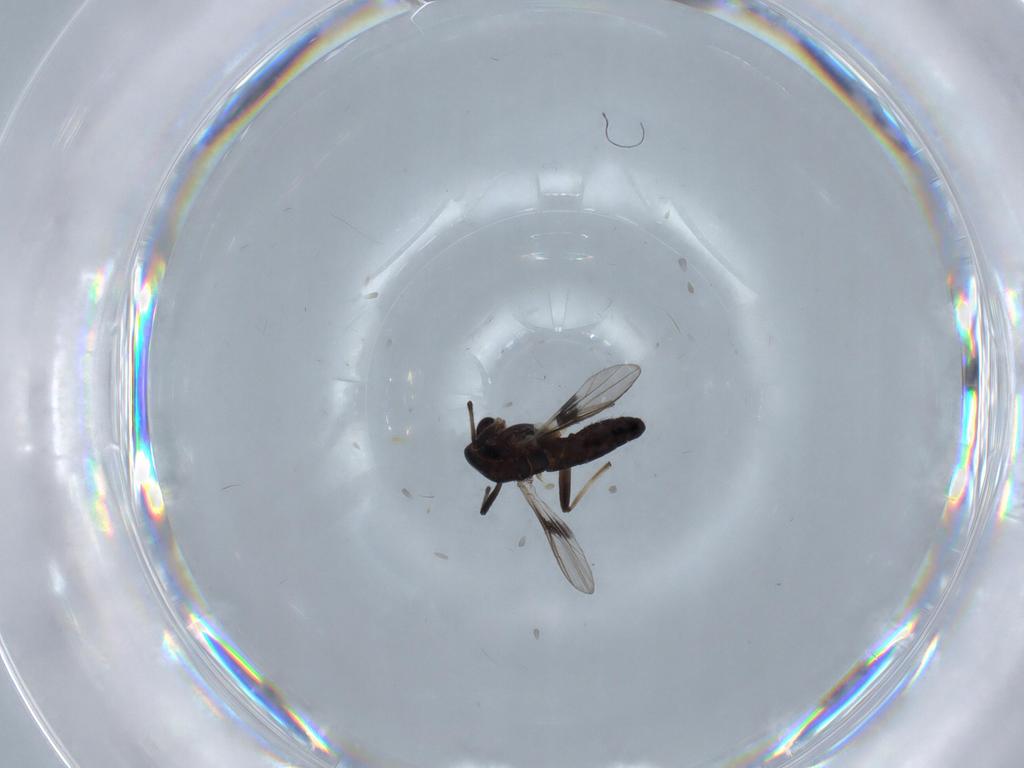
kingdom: Animalia
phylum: Arthropoda
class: Insecta
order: Diptera
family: Chironomidae
